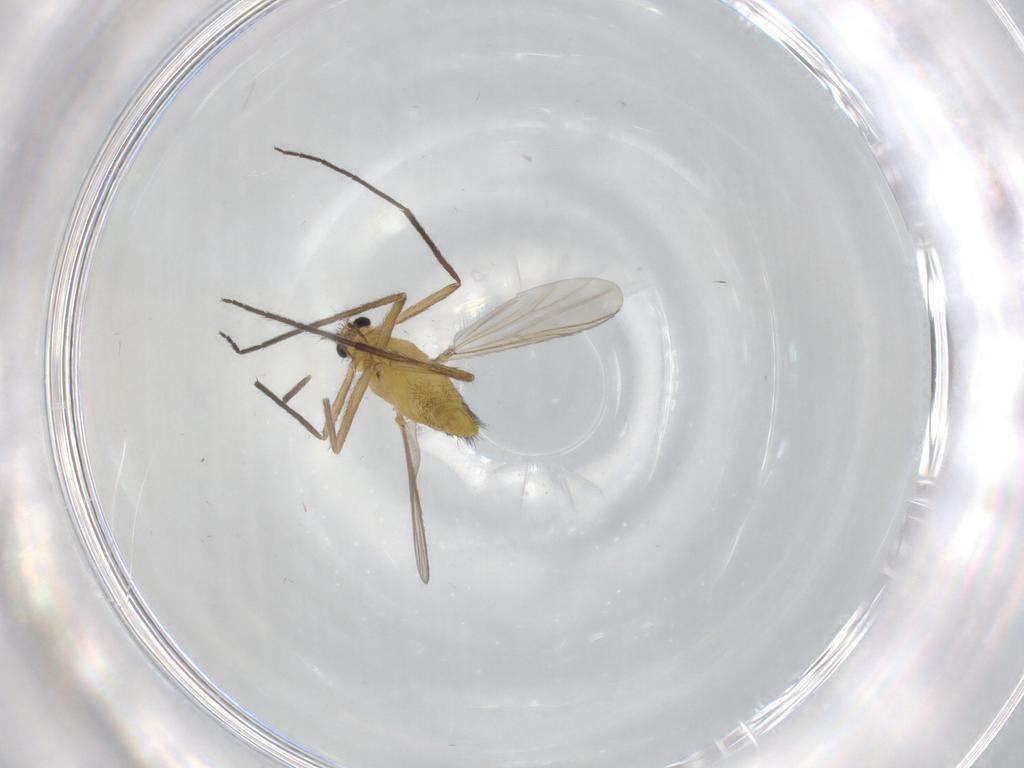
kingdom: Animalia
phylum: Arthropoda
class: Insecta
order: Diptera
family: Chironomidae
